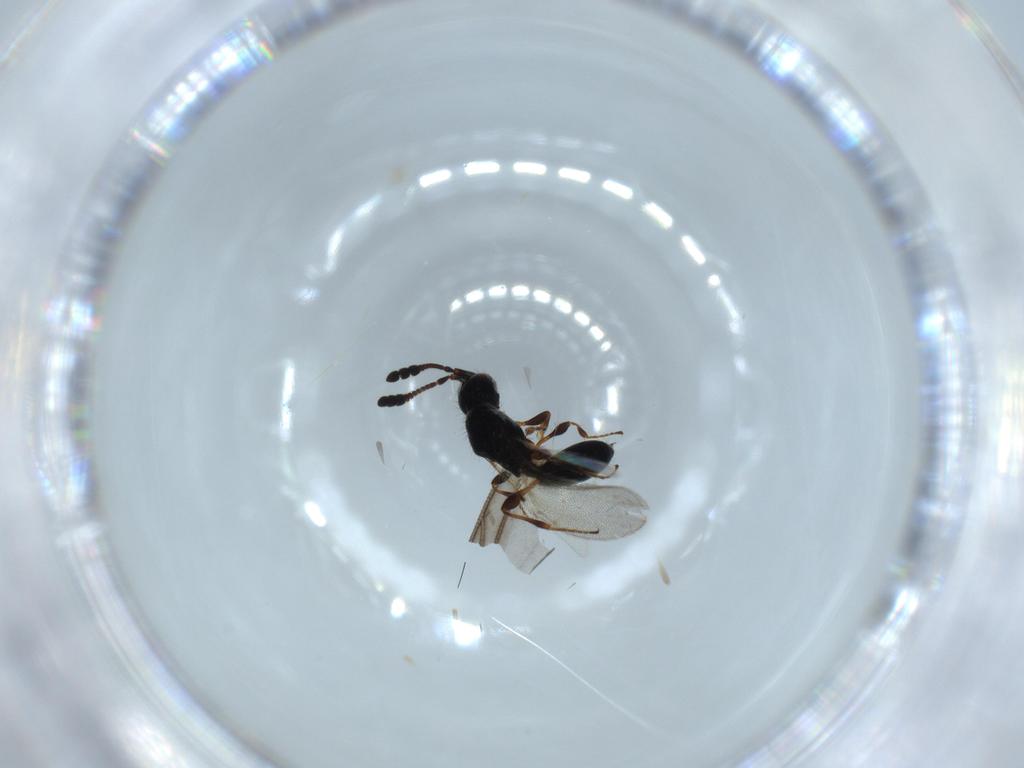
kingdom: Animalia
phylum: Arthropoda
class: Insecta
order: Hymenoptera
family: Diapriidae
